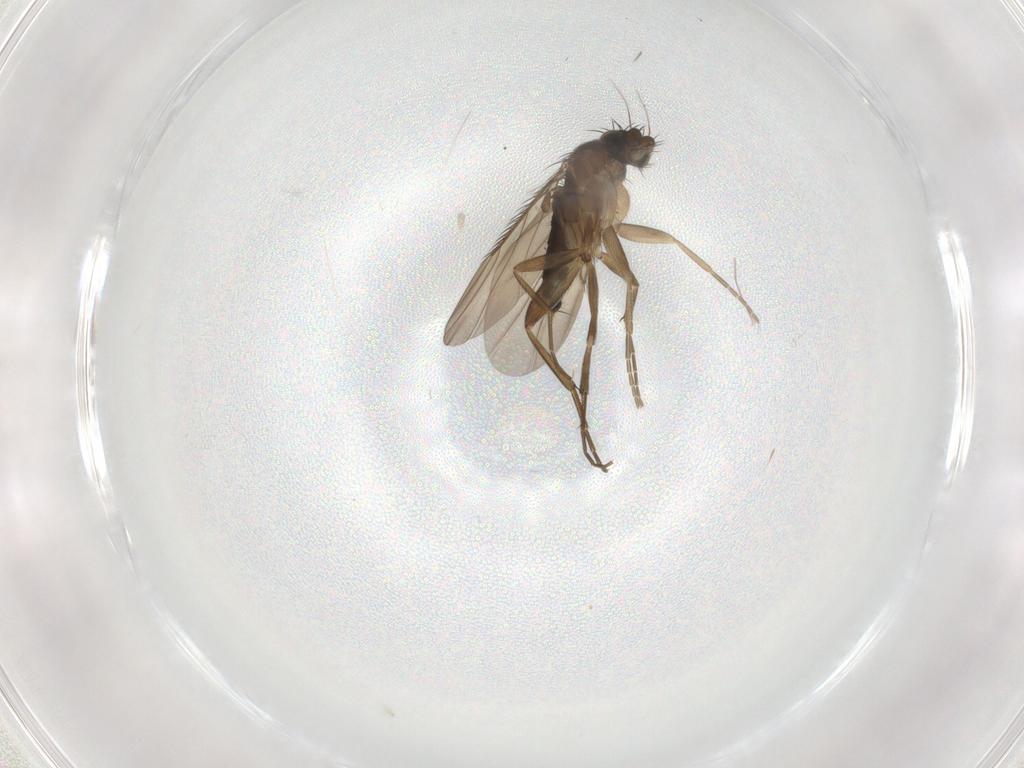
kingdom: Animalia
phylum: Arthropoda
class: Insecta
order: Diptera
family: Phoridae
